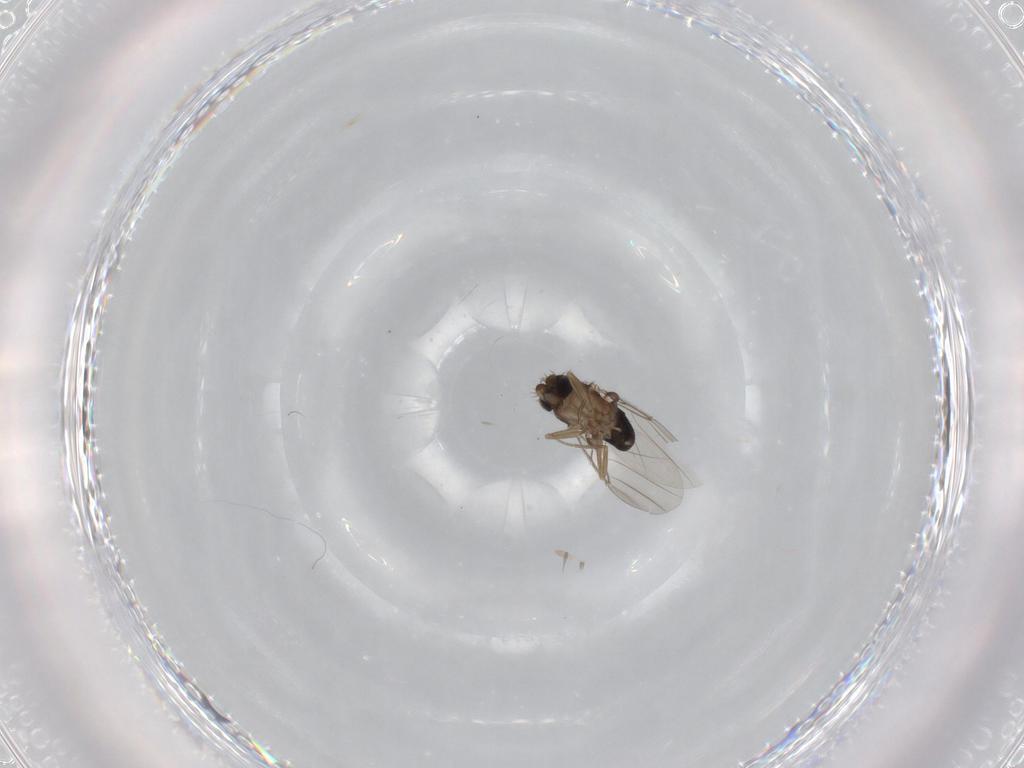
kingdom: Animalia
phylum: Arthropoda
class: Insecta
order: Diptera
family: Phoridae
